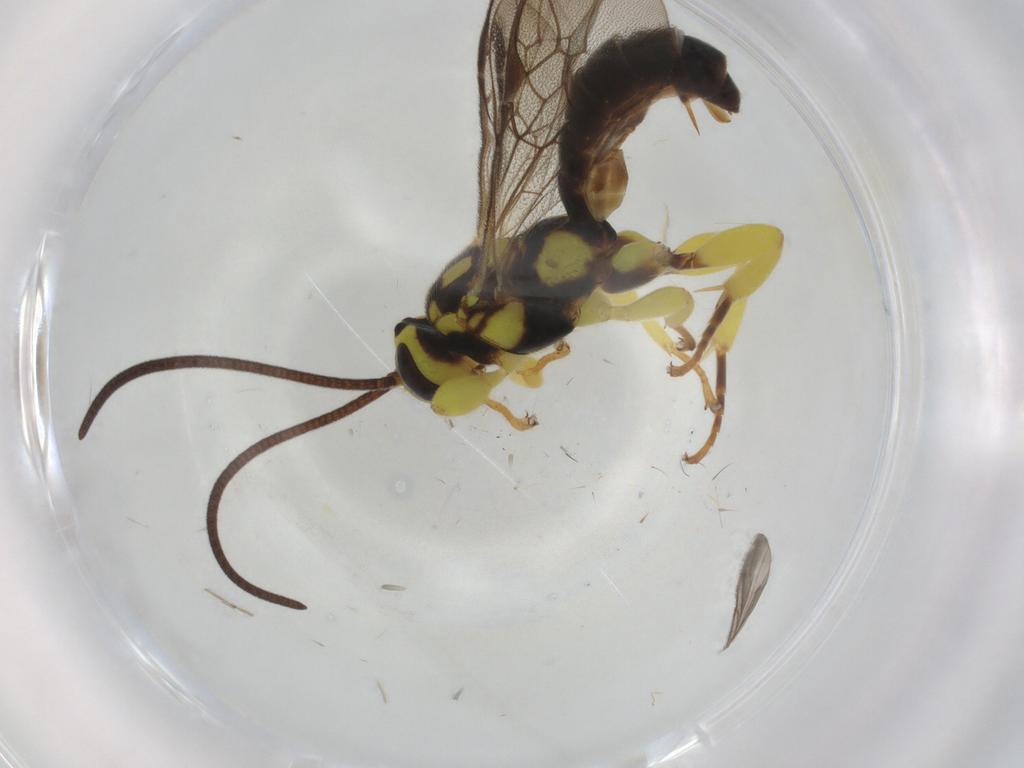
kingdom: Animalia
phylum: Arthropoda
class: Insecta
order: Hymenoptera
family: Ichneumonidae
